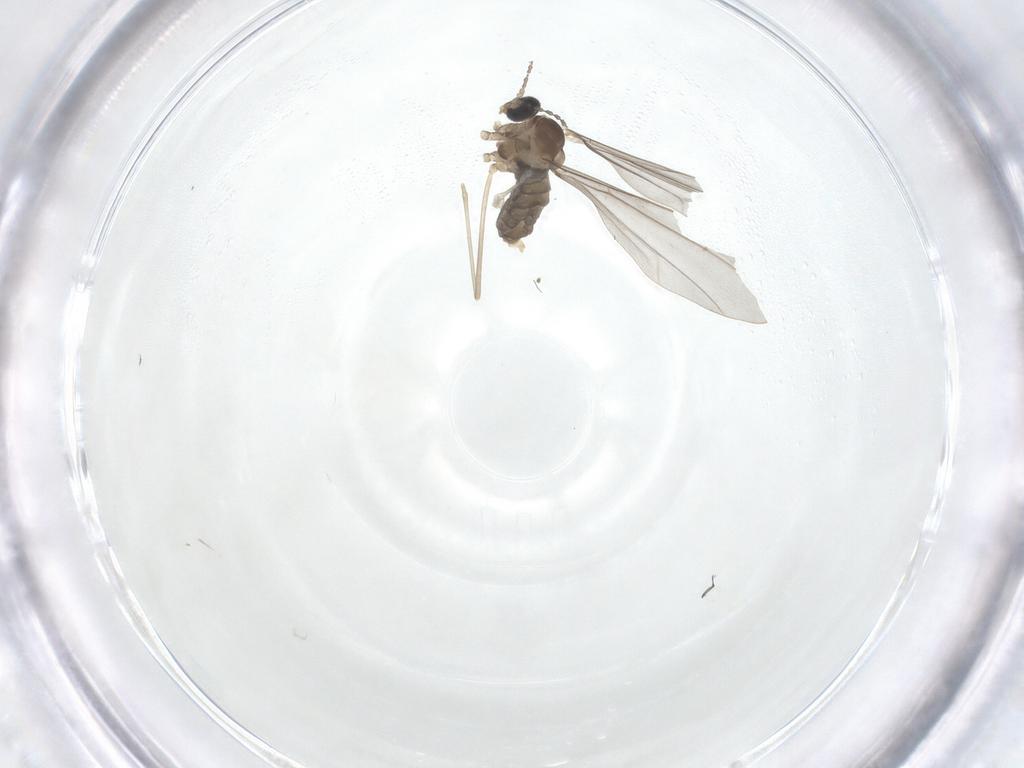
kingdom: Animalia
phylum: Arthropoda
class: Insecta
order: Diptera
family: Cecidomyiidae
